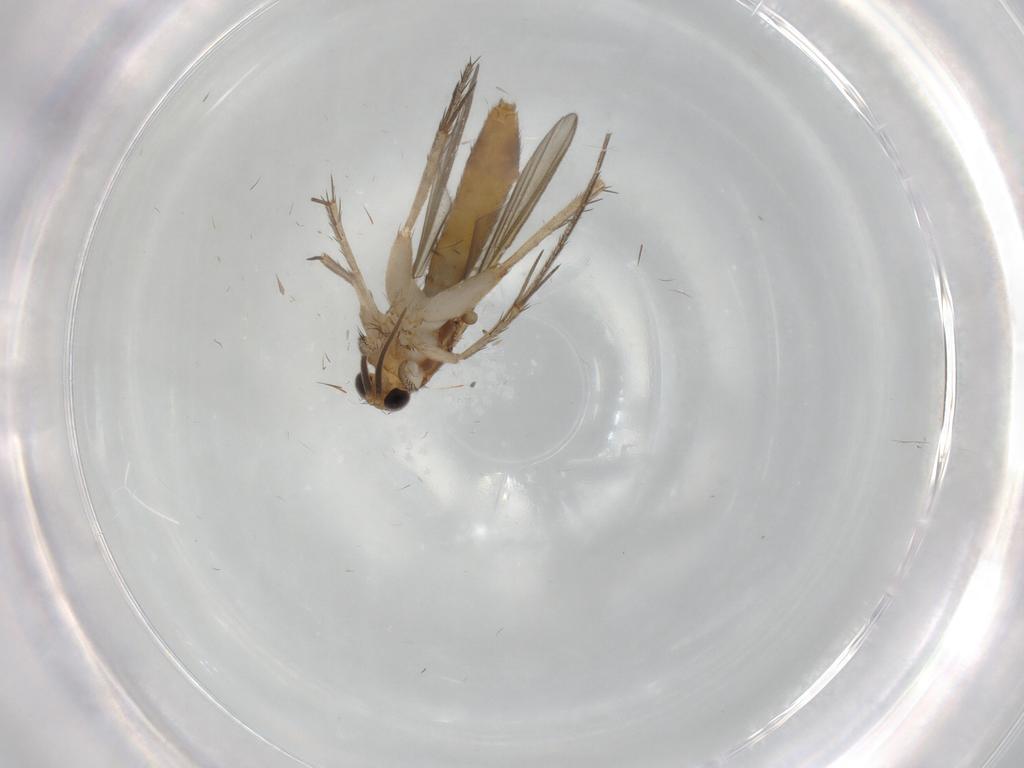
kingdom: Animalia
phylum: Arthropoda
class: Insecta
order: Diptera
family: Mycetophilidae
